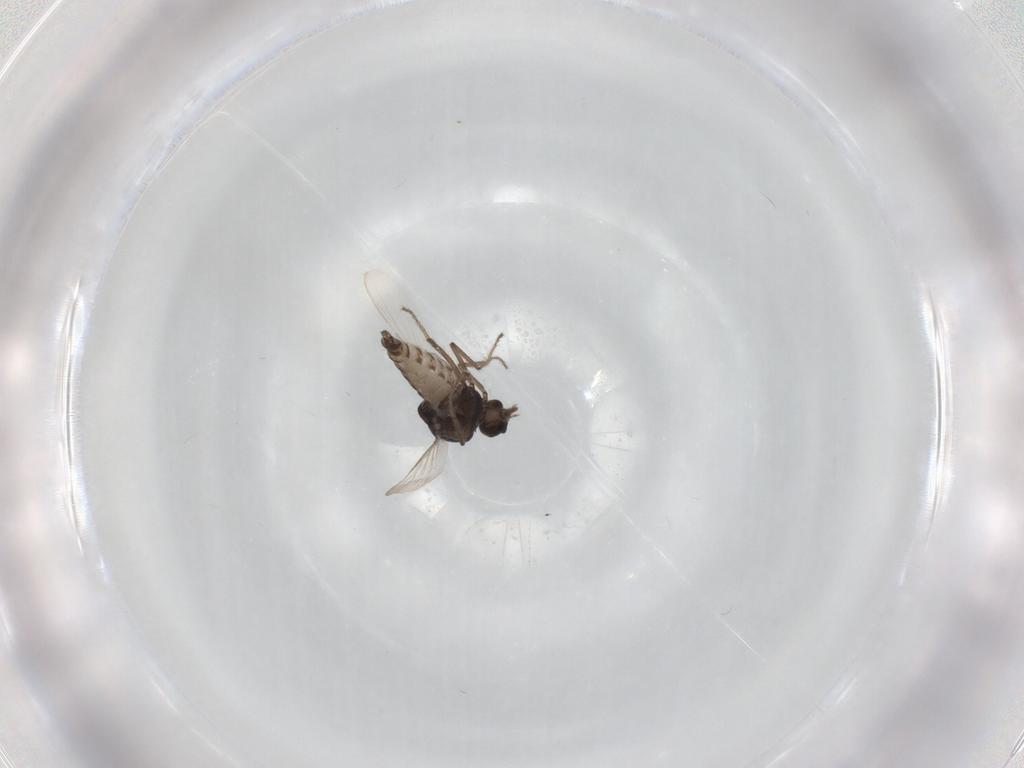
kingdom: Animalia
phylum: Arthropoda
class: Insecta
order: Diptera
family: Ceratopogonidae
